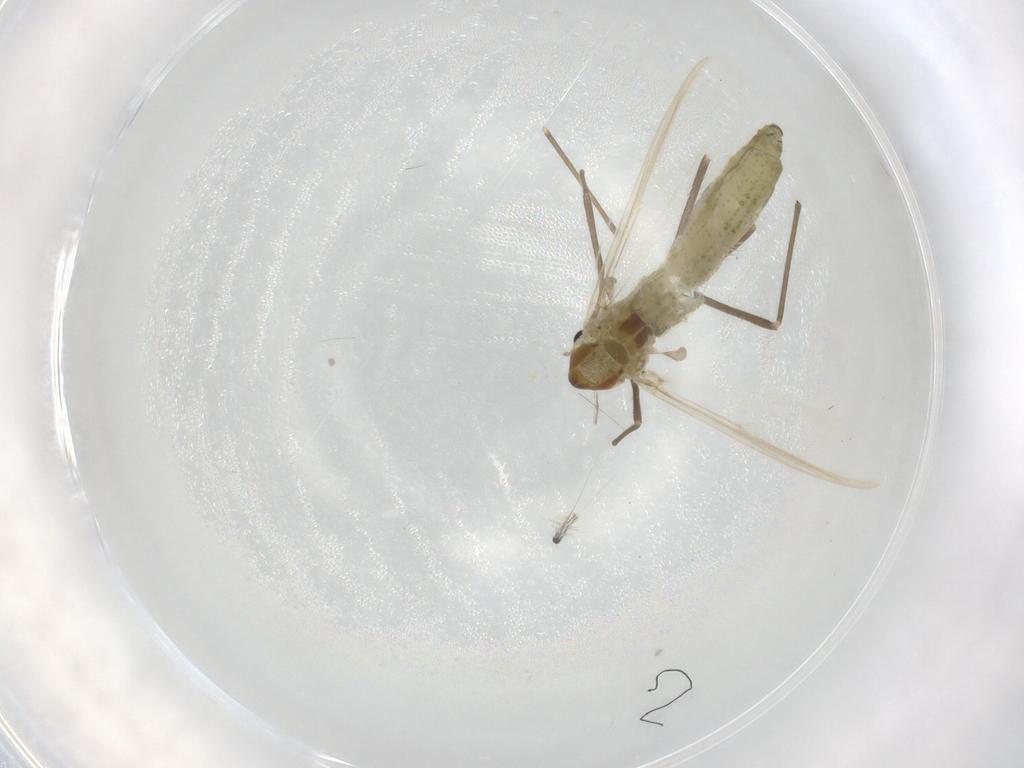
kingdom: Animalia
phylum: Arthropoda
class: Insecta
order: Diptera
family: Chironomidae
